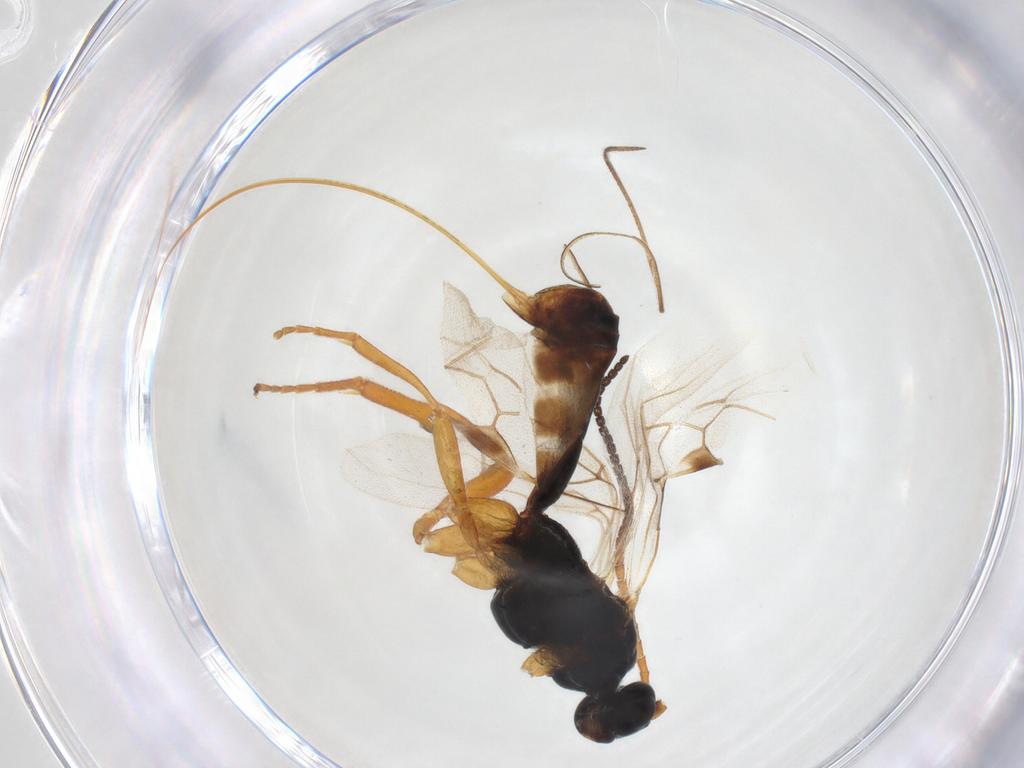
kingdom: Animalia
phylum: Arthropoda
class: Insecta
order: Hymenoptera
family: Braconidae
